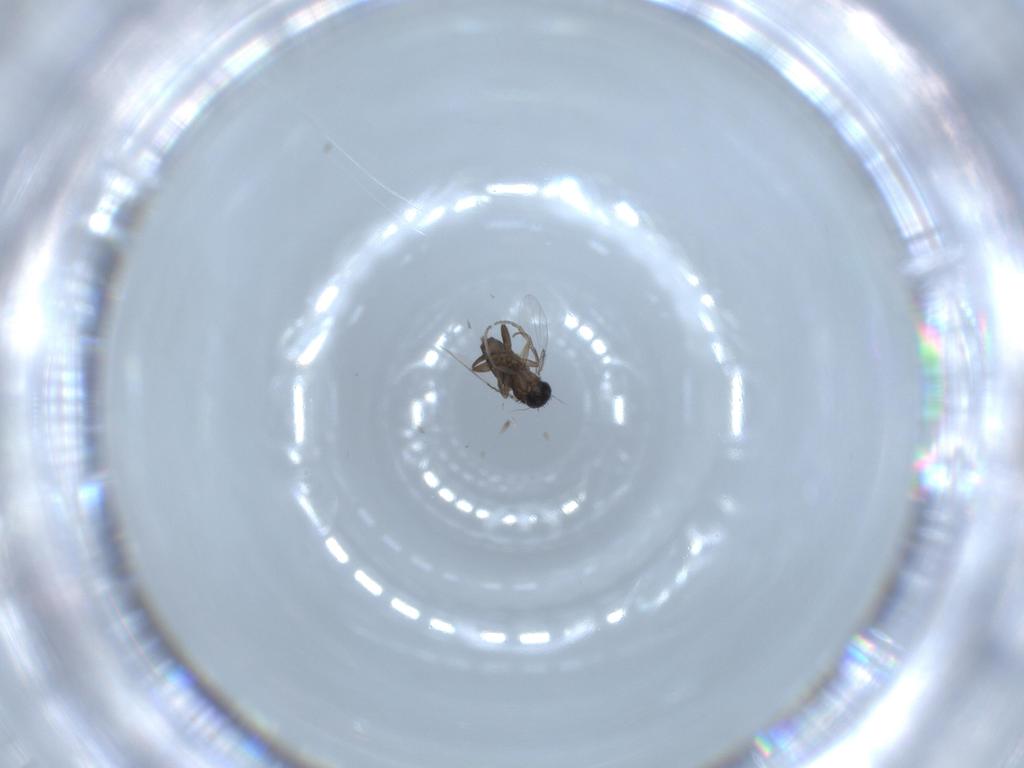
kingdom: Animalia
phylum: Arthropoda
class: Insecta
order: Diptera
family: Phoridae
